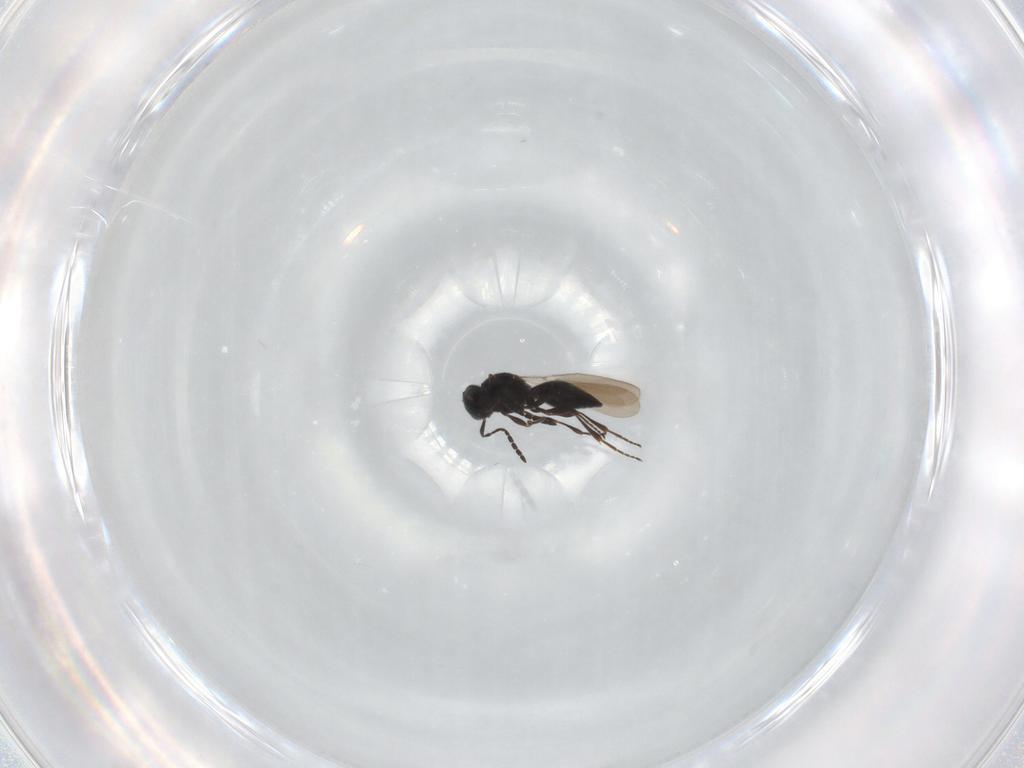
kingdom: Animalia
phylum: Arthropoda
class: Insecta
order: Hymenoptera
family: Platygastridae
